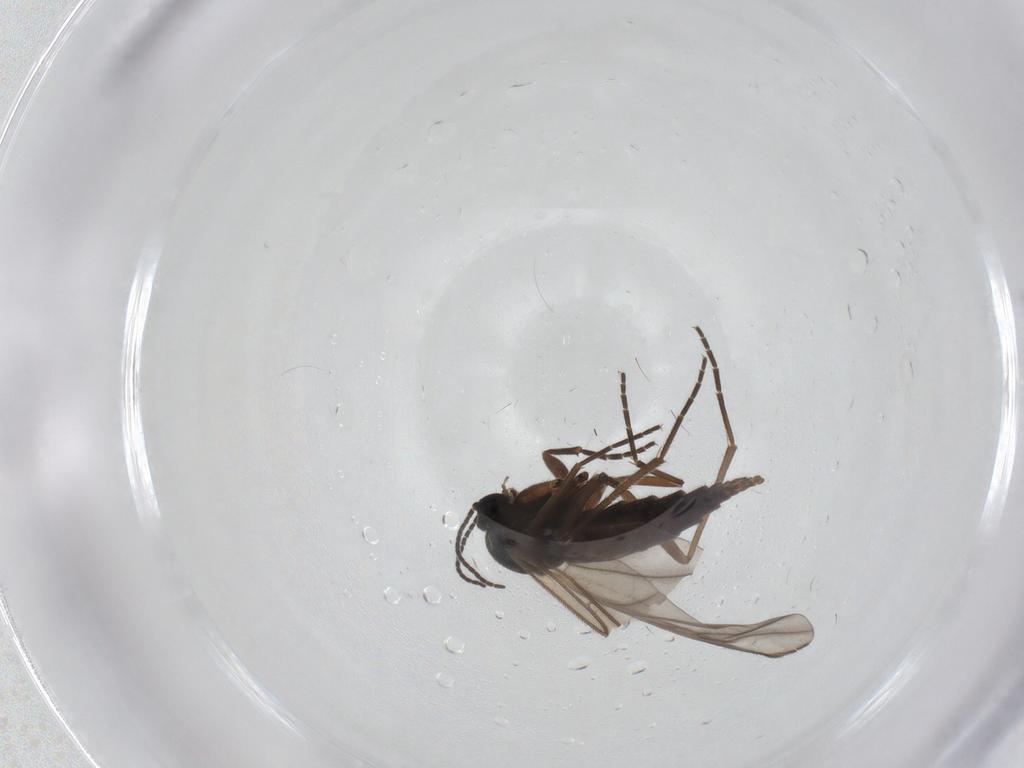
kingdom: Animalia
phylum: Arthropoda
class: Insecta
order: Diptera
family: Sciaridae
